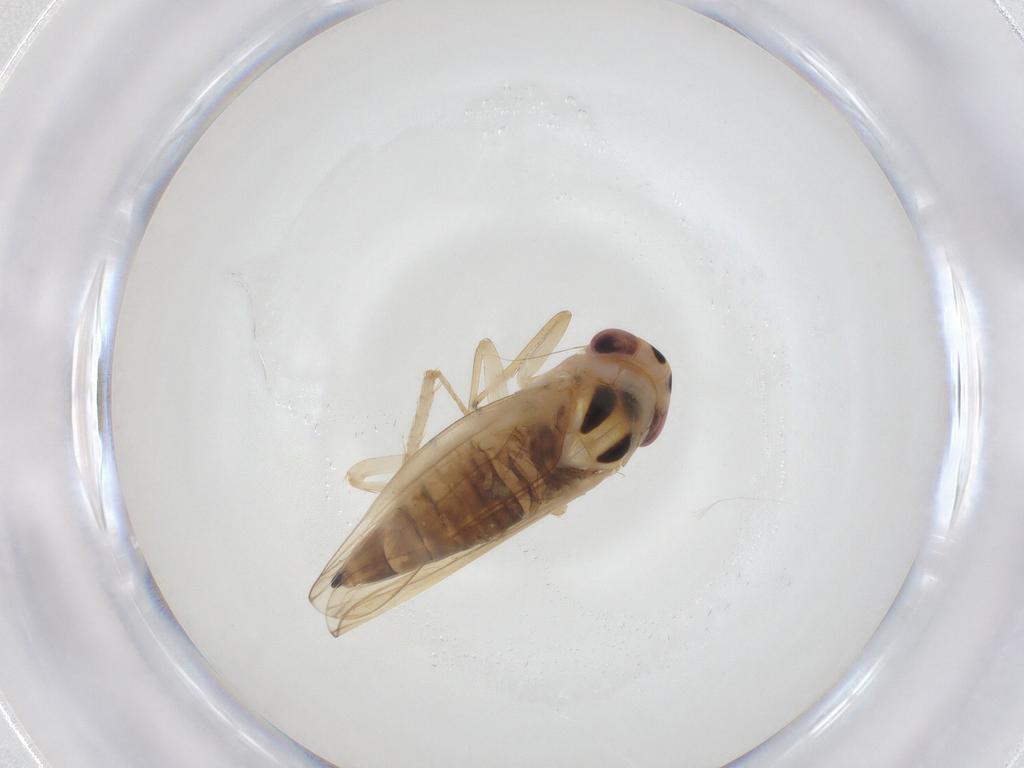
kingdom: Animalia
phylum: Arthropoda
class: Insecta
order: Hemiptera
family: Cicadellidae
